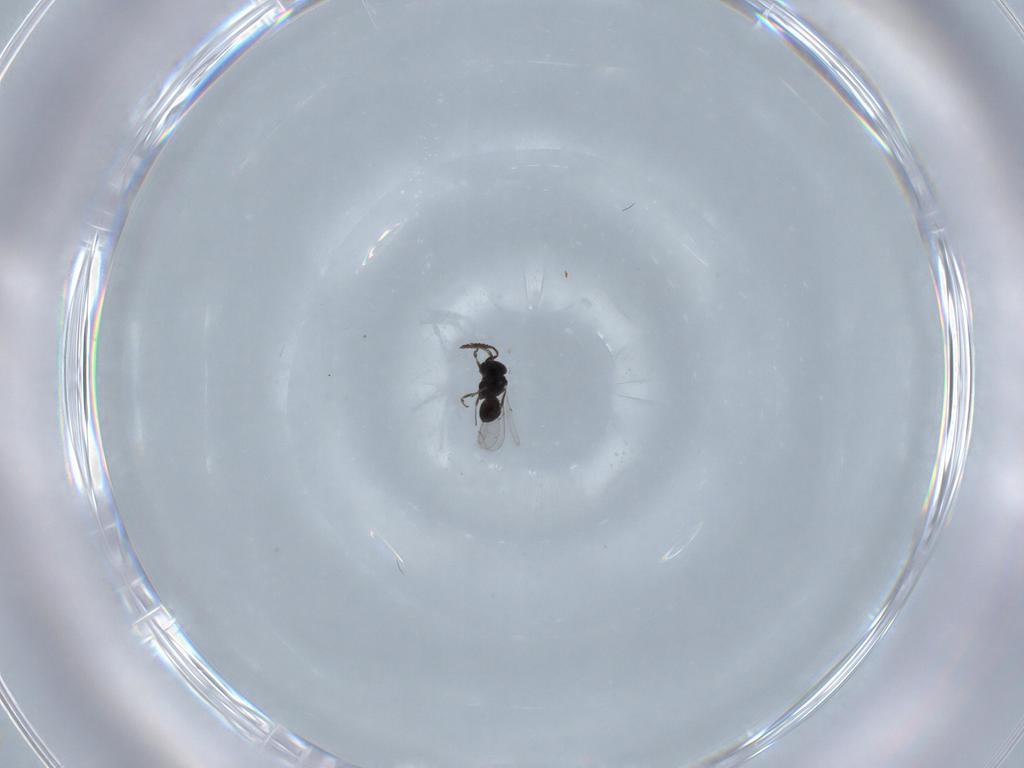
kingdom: Animalia
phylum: Arthropoda
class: Insecta
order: Hymenoptera
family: Scelionidae
